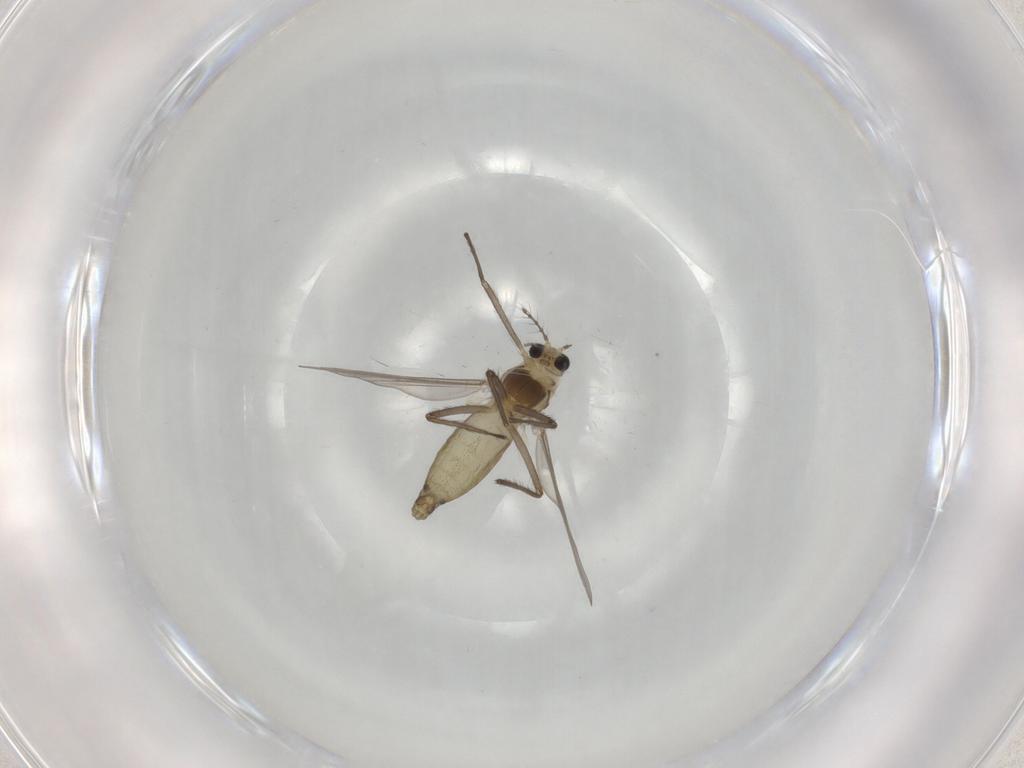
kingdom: Animalia
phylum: Arthropoda
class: Insecta
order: Diptera
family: Chironomidae
